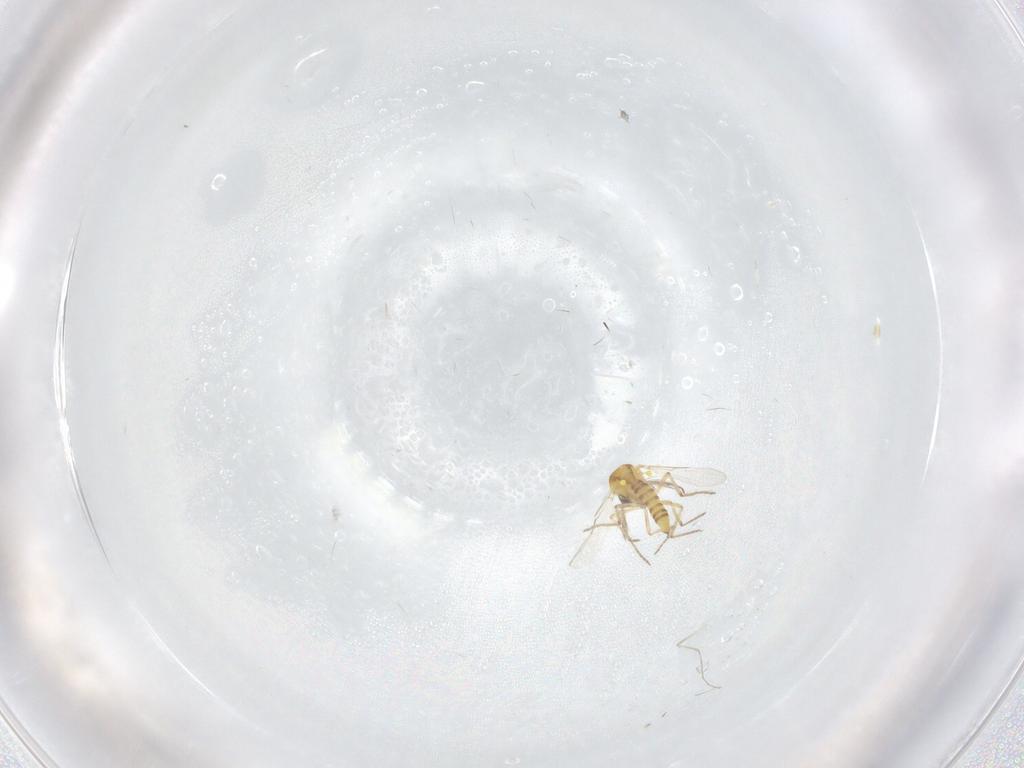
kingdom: Animalia
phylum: Arthropoda
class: Insecta
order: Diptera
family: Ceratopogonidae
